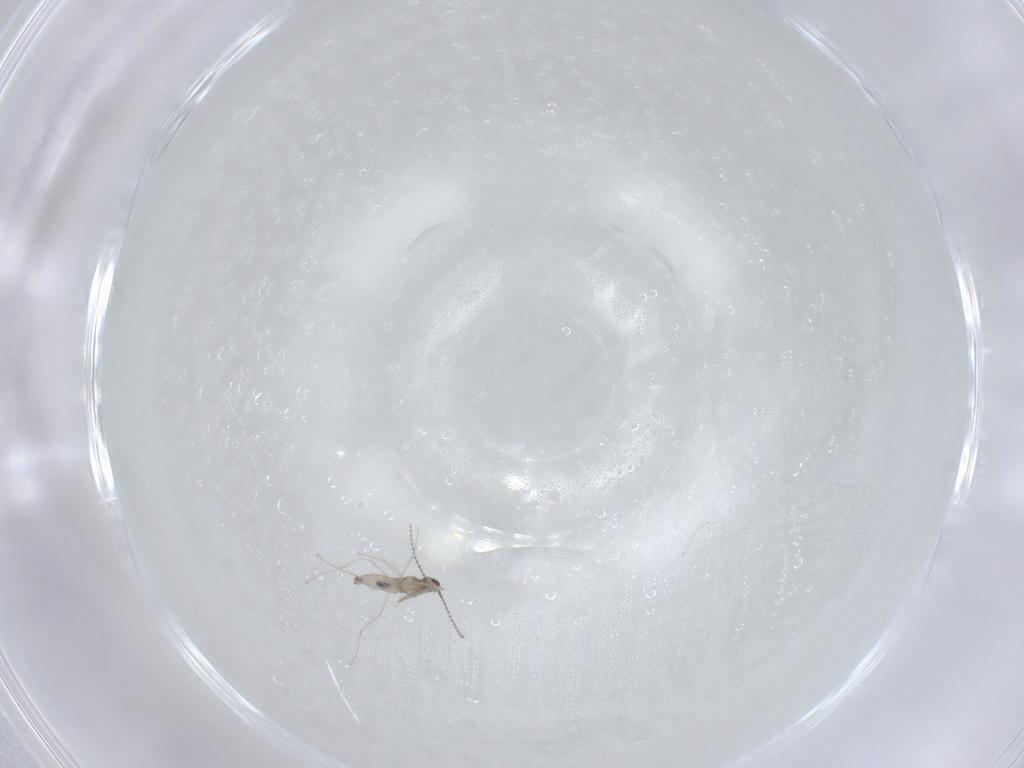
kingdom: Animalia
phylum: Arthropoda
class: Insecta
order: Diptera
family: Cecidomyiidae
